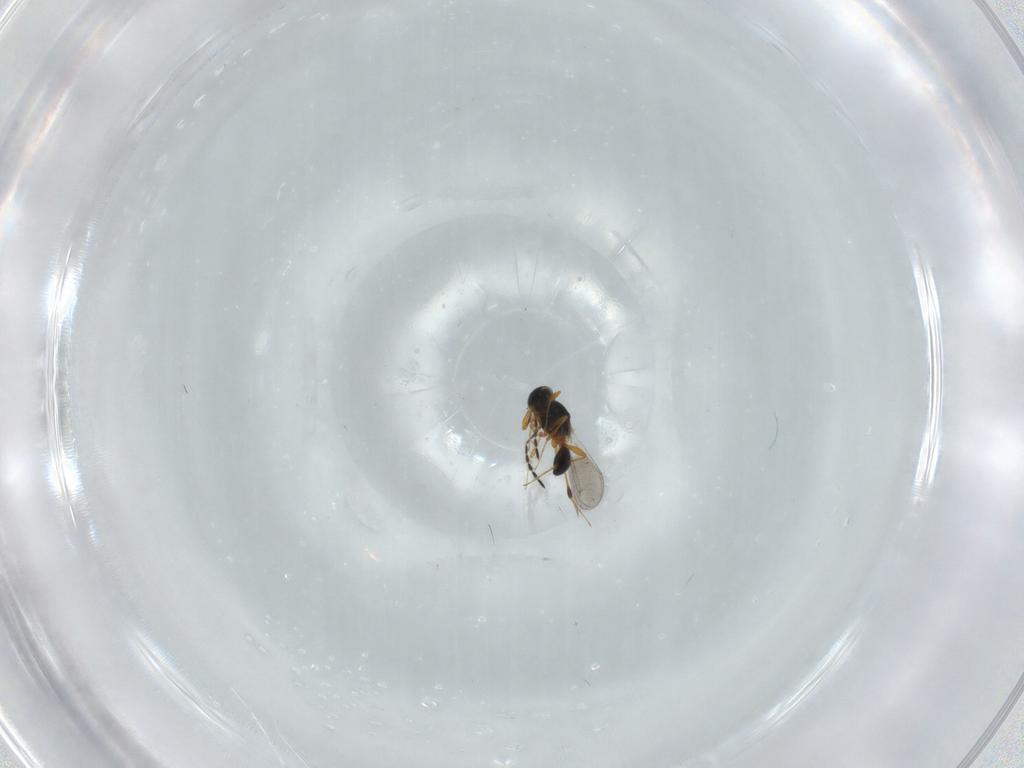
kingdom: Animalia
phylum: Arthropoda
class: Insecta
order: Hymenoptera
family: Platygastridae
